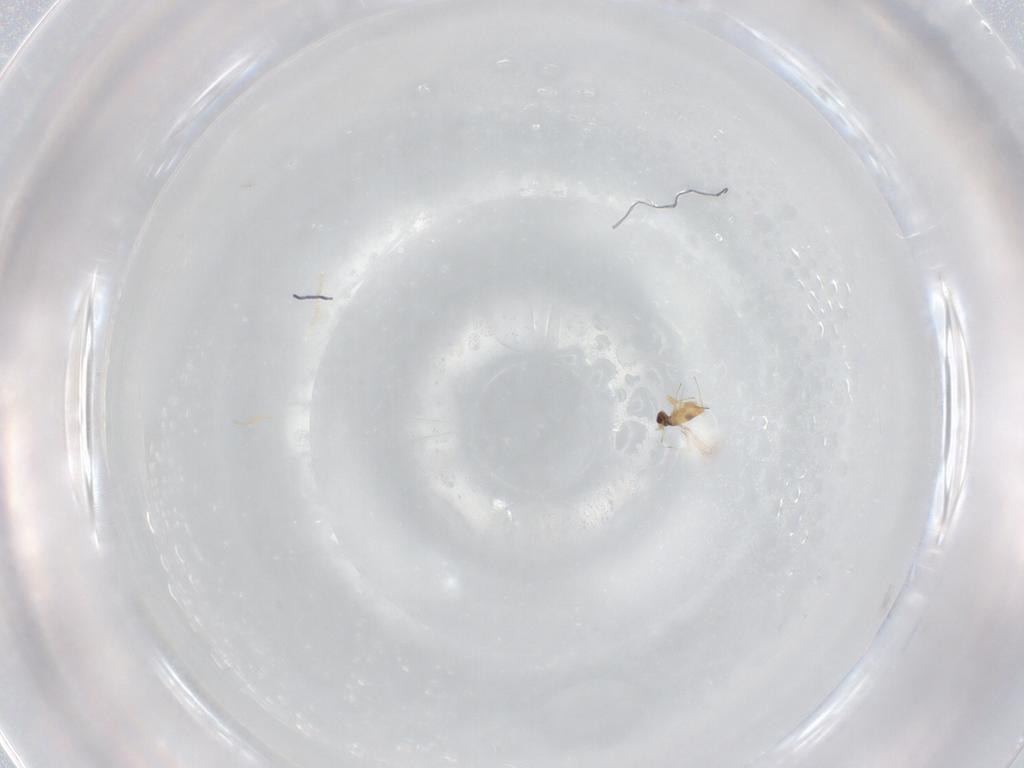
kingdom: Animalia
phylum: Arthropoda
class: Insecta
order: Hymenoptera
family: Mymaridae
